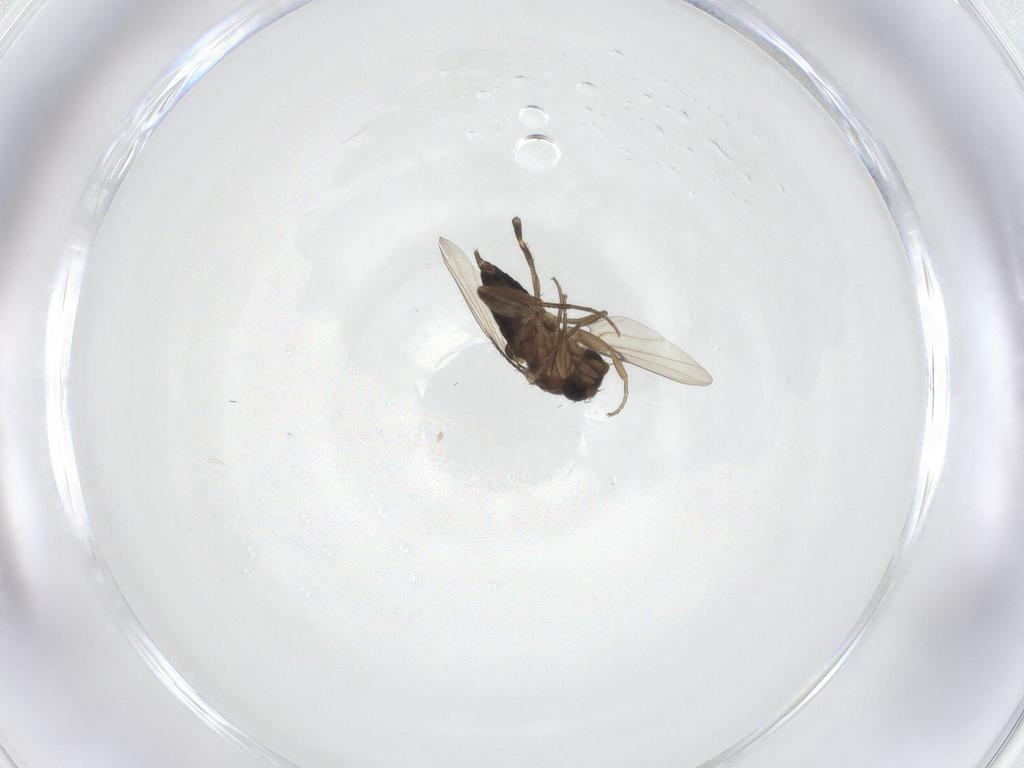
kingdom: Animalia
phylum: Arthropoda
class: Insecta
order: Diptera
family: Phoridae
